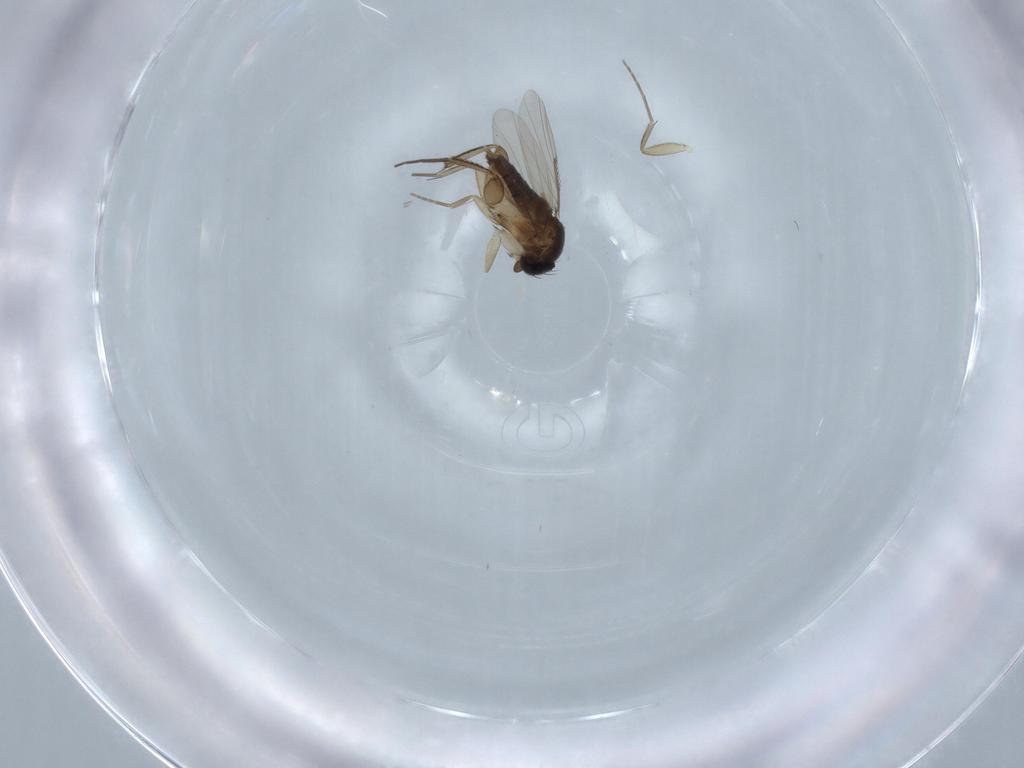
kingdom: Animalia
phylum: Arthropoda
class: Insecta
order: Diptera
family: Phoridae
